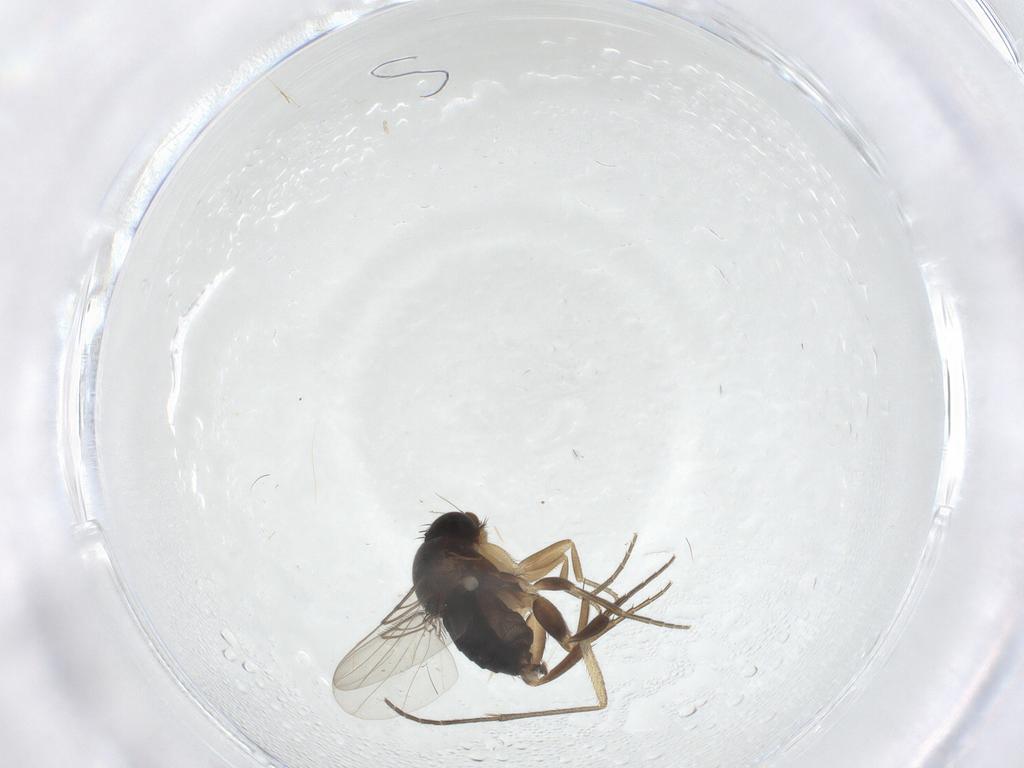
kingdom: Animalia
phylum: Arthropoda
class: Insecta
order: Diptera
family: Phoridae
